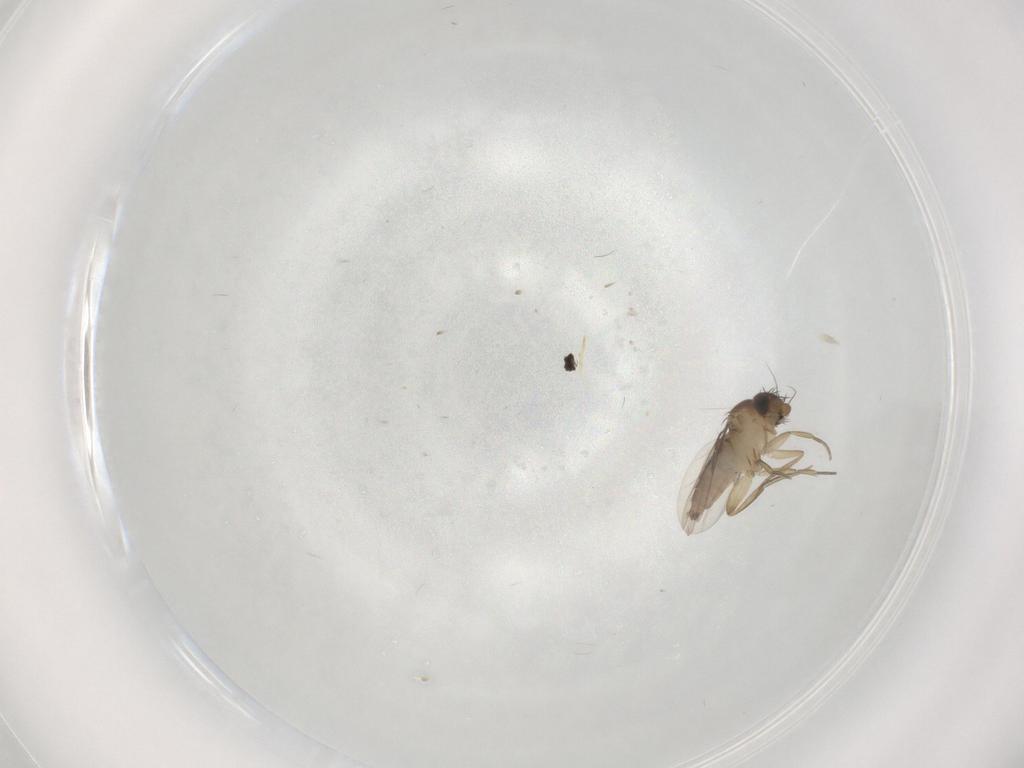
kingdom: Animalia
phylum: Arthropoda
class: Insecta
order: Diptera
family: Phoridae
